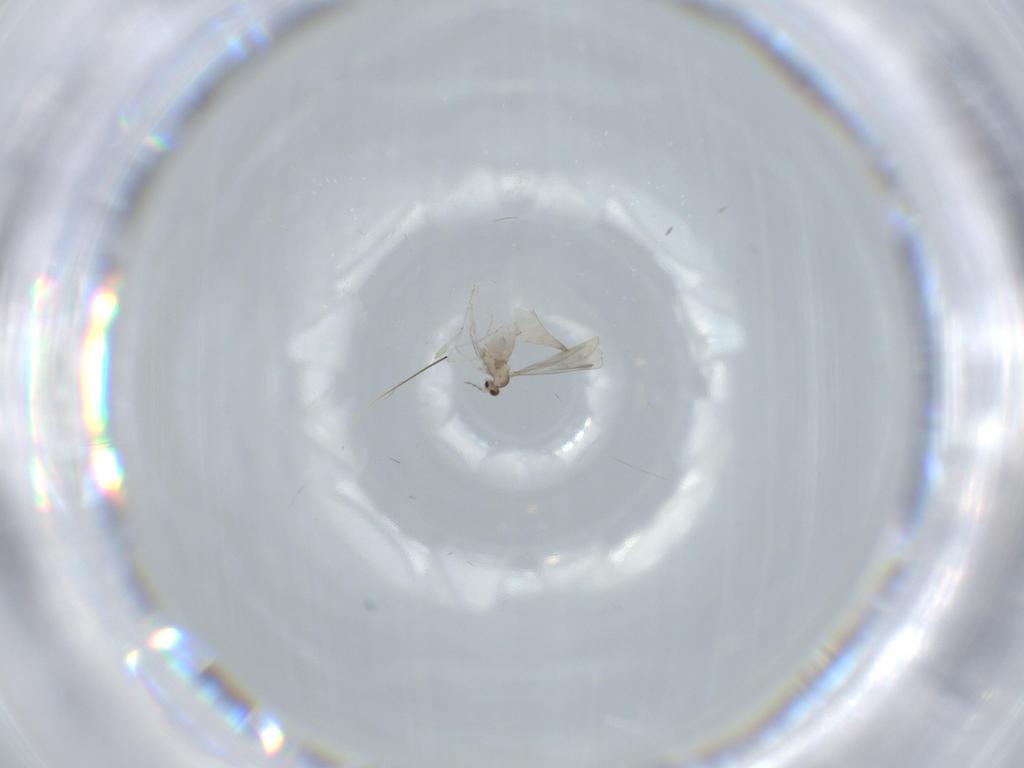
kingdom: Animalia
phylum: Arthropoda
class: Insecta
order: Diptera
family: Cecidomyiidae
